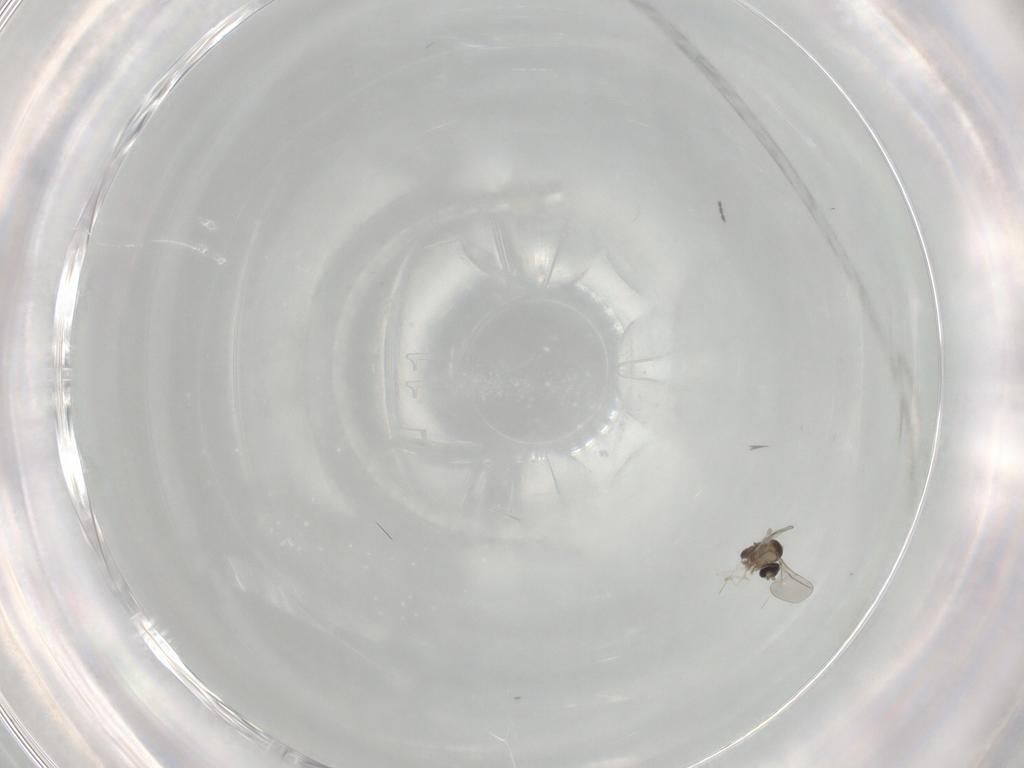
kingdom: Animalia
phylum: Arthropoda
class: Insecta
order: Diptera
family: Cecidomyiidae
